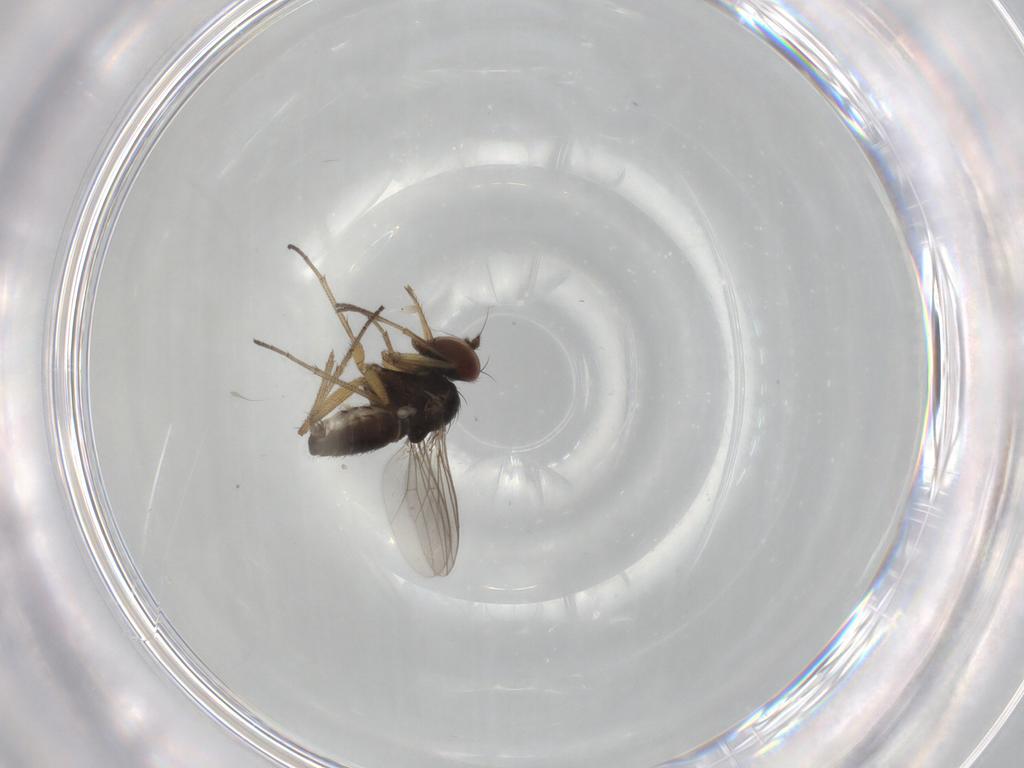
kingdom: Animalia
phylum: Arthropoda
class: Insecta
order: Diptera
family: Dolichopodidae
